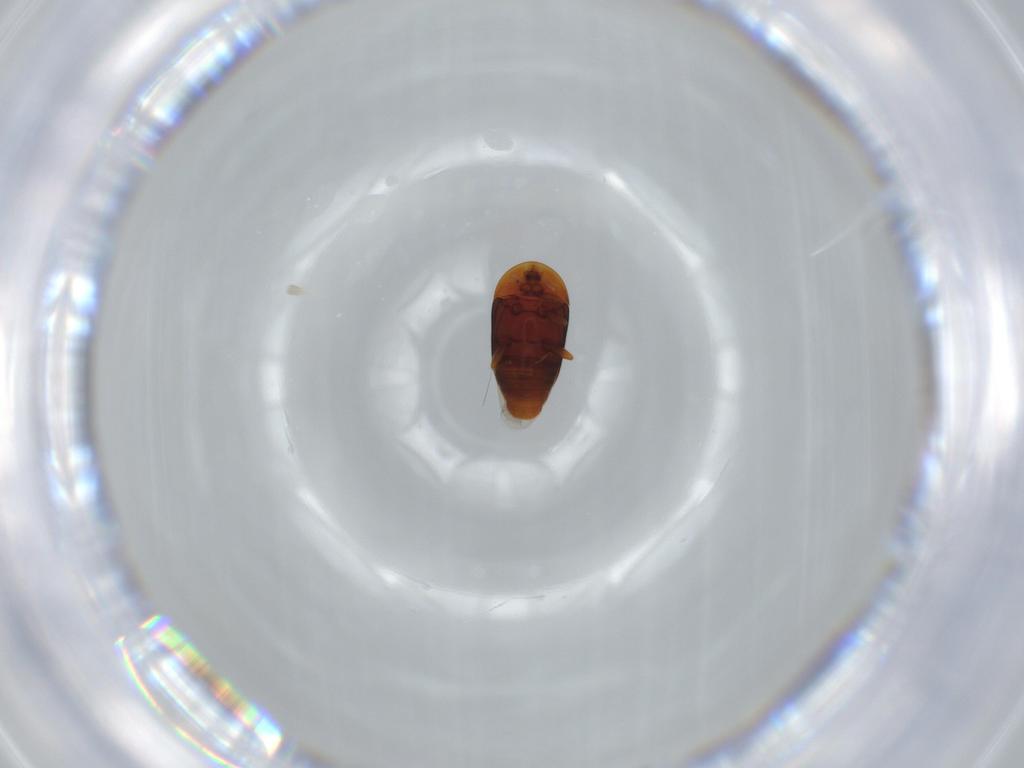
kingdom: Animalia
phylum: Arthropoda
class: Insecta
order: Coleoptera
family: Corylophidae
